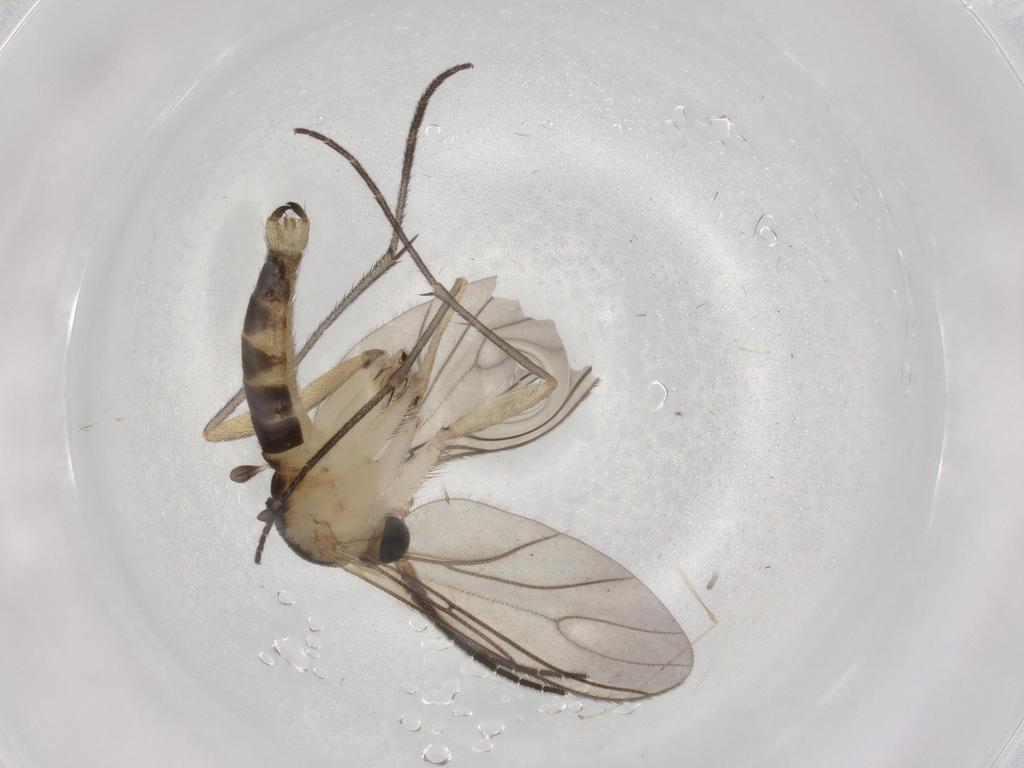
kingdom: Animalia
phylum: Arthropoda
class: Insecta
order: Diptera
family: Sciaridae
